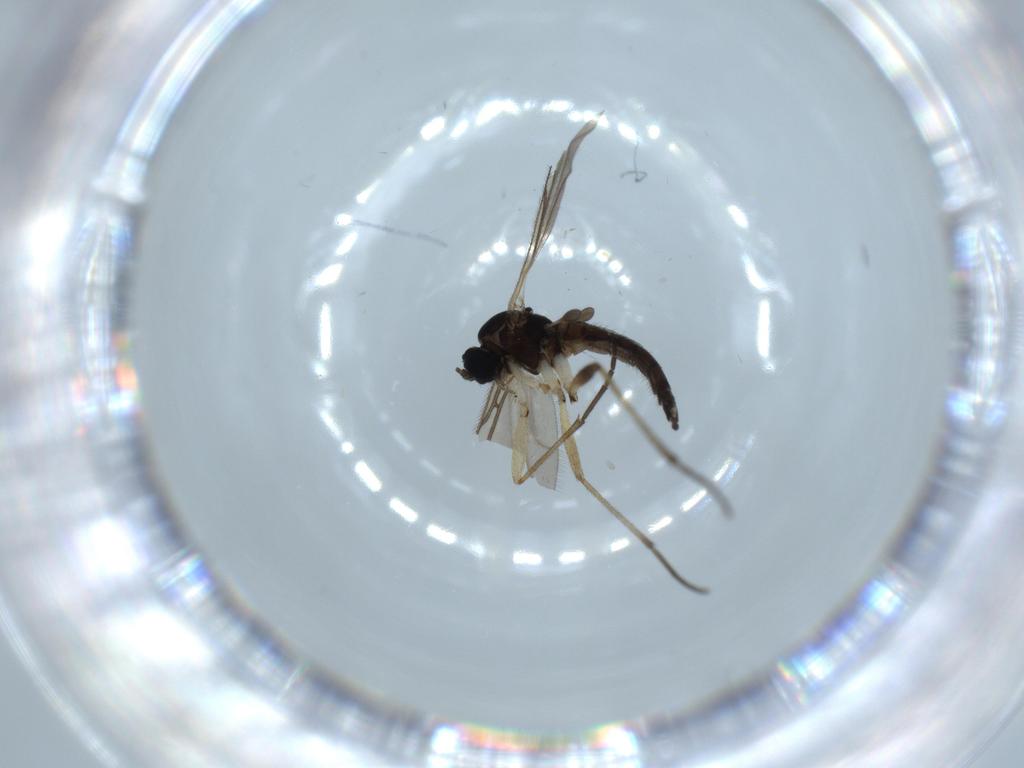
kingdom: Animalia
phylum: Arthropoda
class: Insecta
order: Diptera
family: Sciaridae
